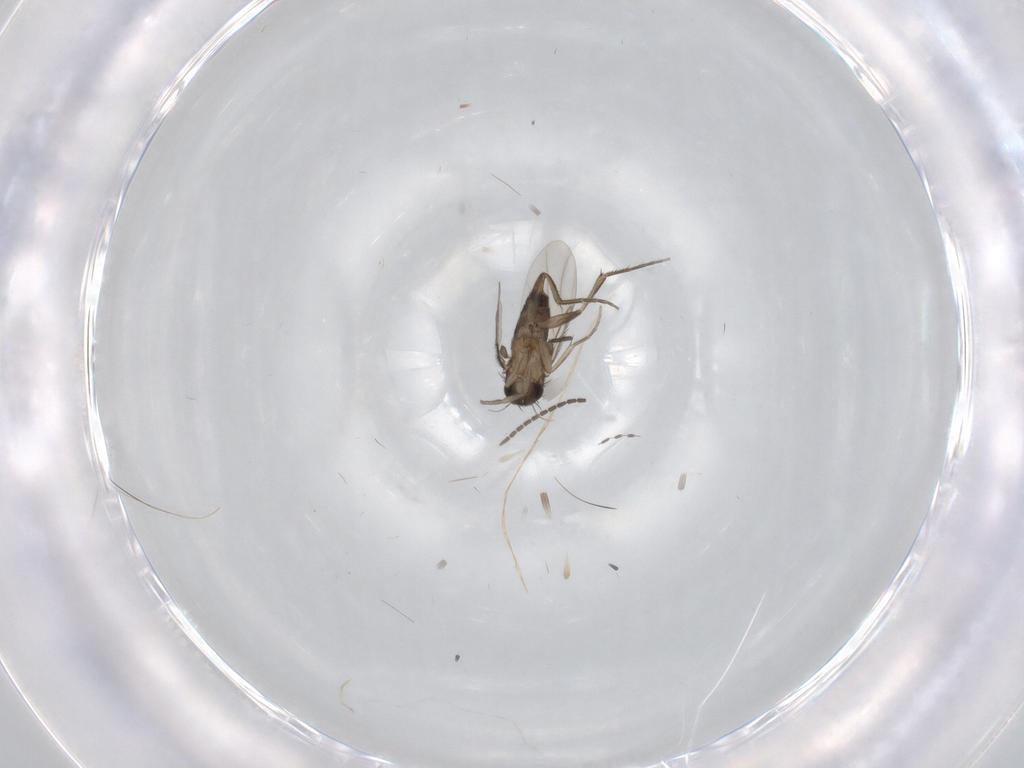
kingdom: Animalia
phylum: Arthropoda
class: Insecta
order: Diptera
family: Phoridae
